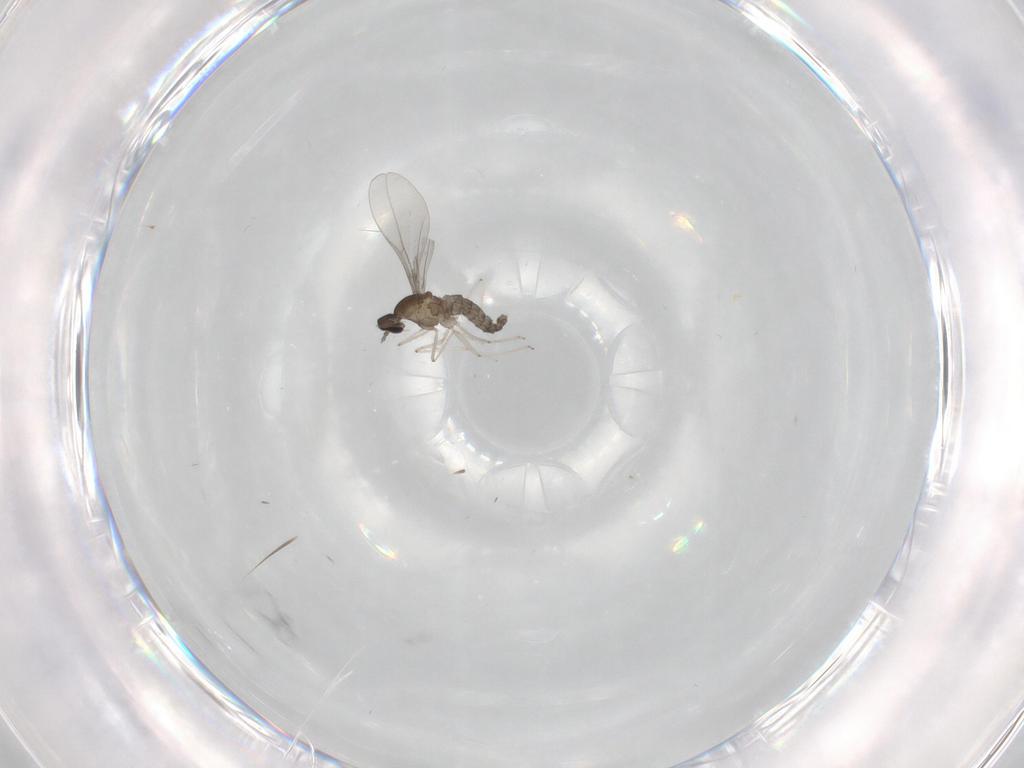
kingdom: Animalia
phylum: Arthropoda
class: Insecta
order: Diptera
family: Cecidomyiidae
